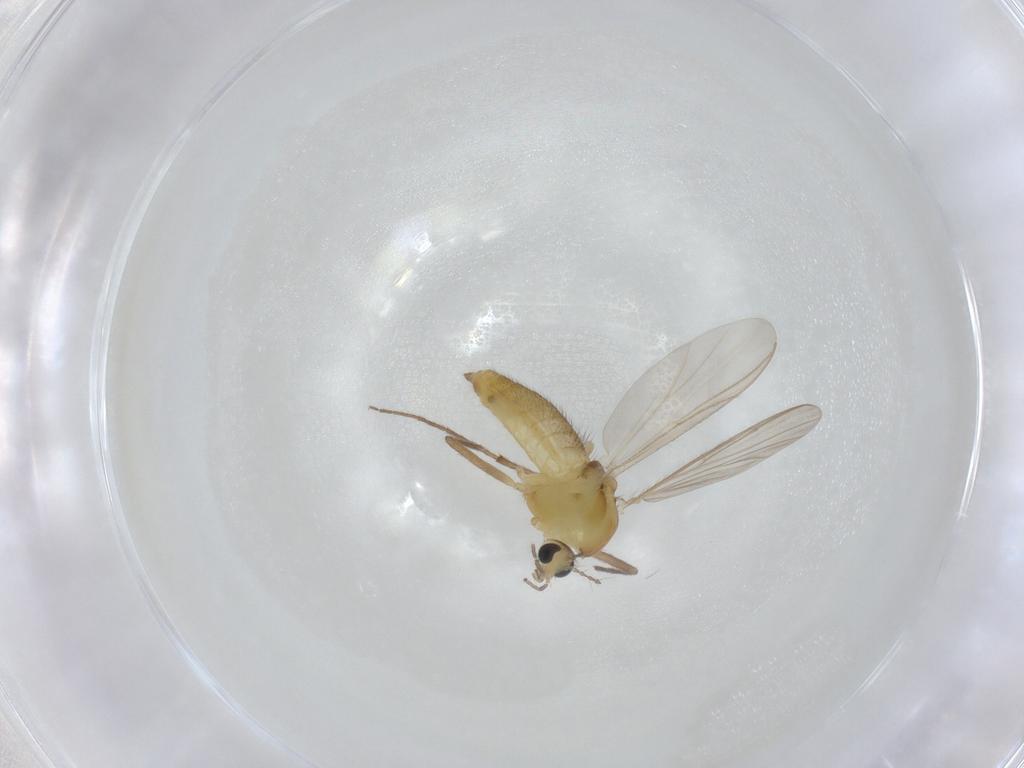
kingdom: Animalia
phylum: Arthropoda
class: Insecta
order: Diptera
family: Chironomidae
